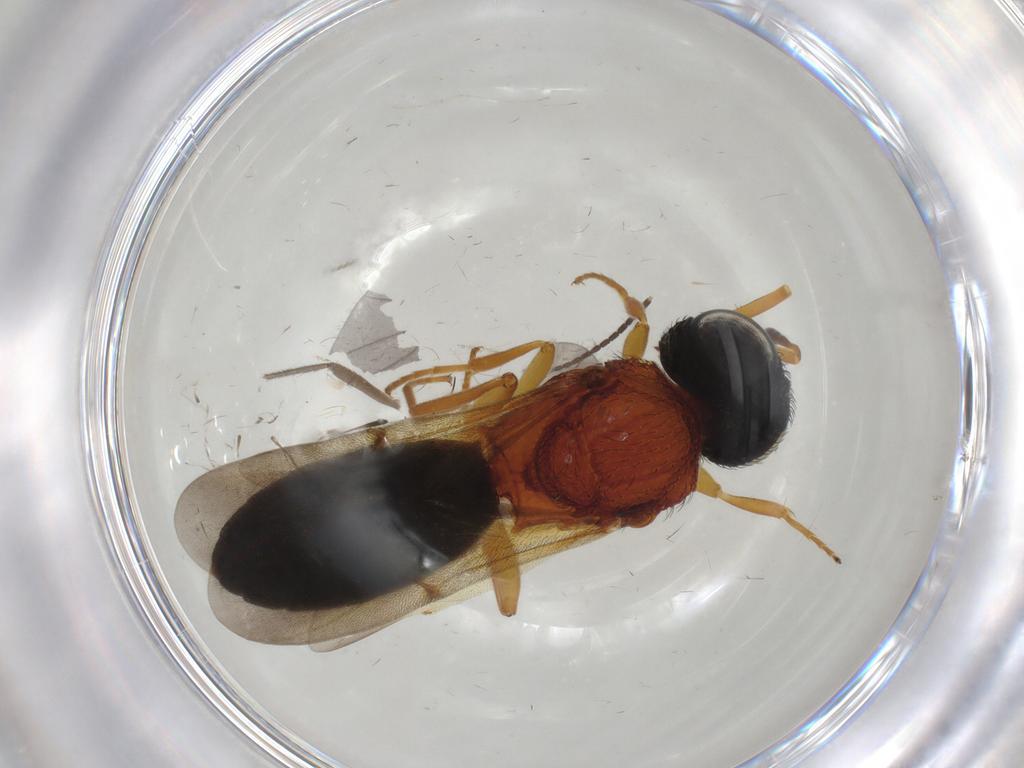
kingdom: Animalia
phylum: Arthropoda
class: Insecta
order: Hymenoptera
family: Scelionidae
